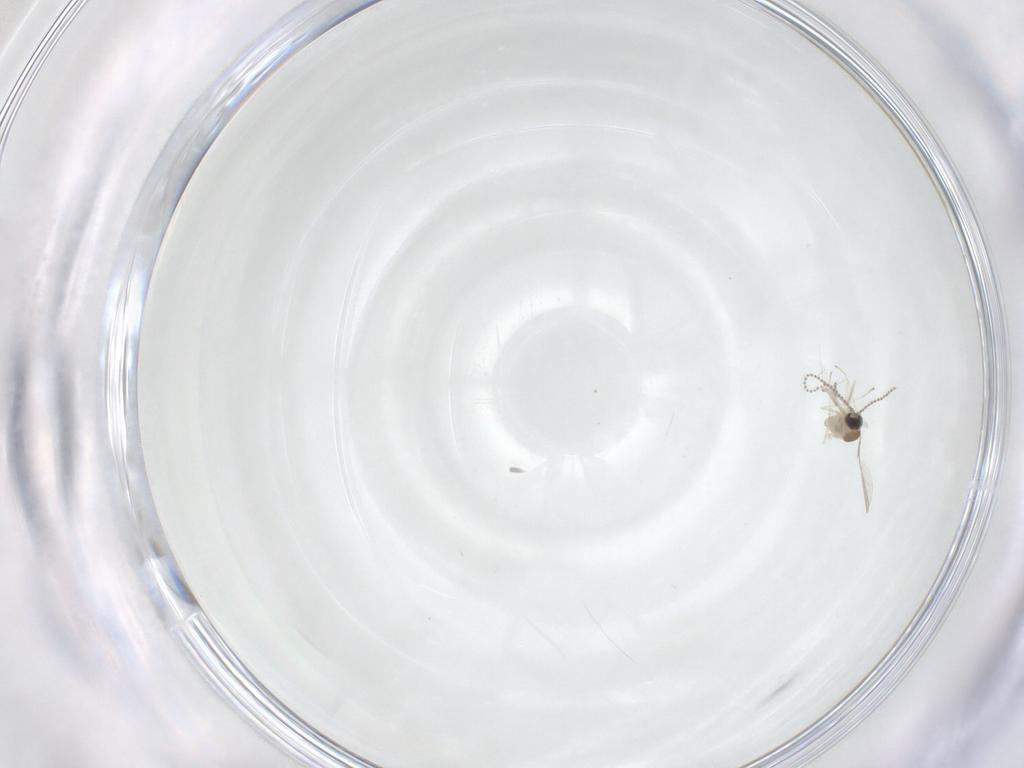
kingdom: Animalia
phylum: Arthropoda
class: Insecta
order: Diptera
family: Cecidomyiidae
